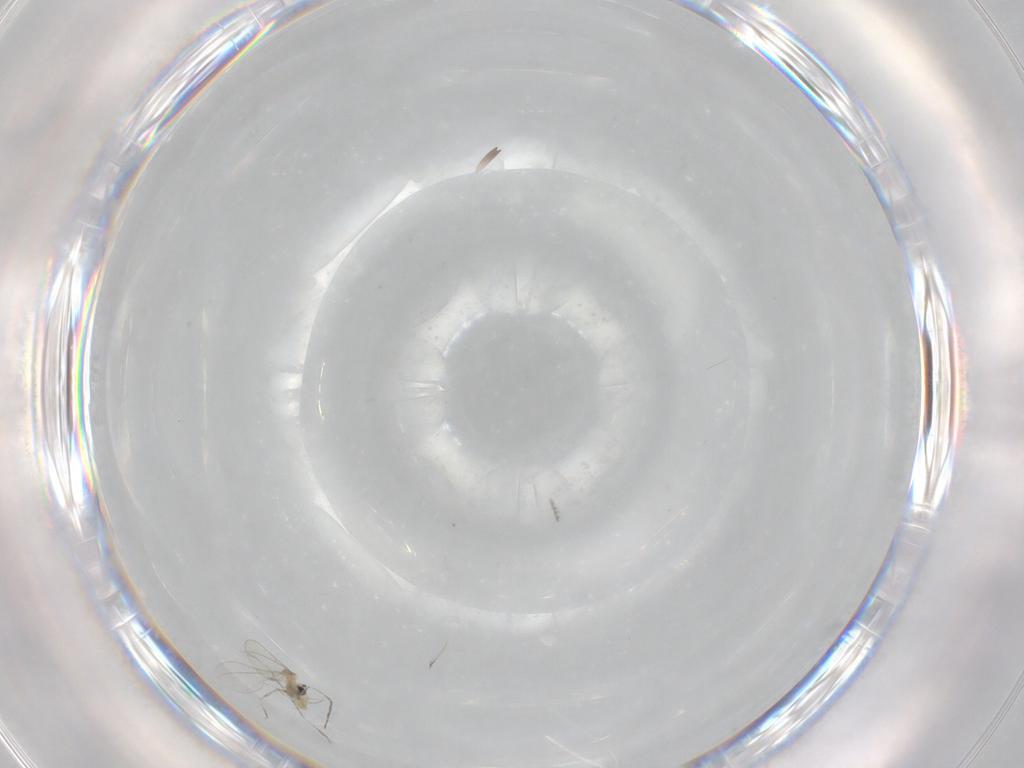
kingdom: Animalia
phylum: Arthropoda
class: Insecta
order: Diptera
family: Cecidomyiidae
